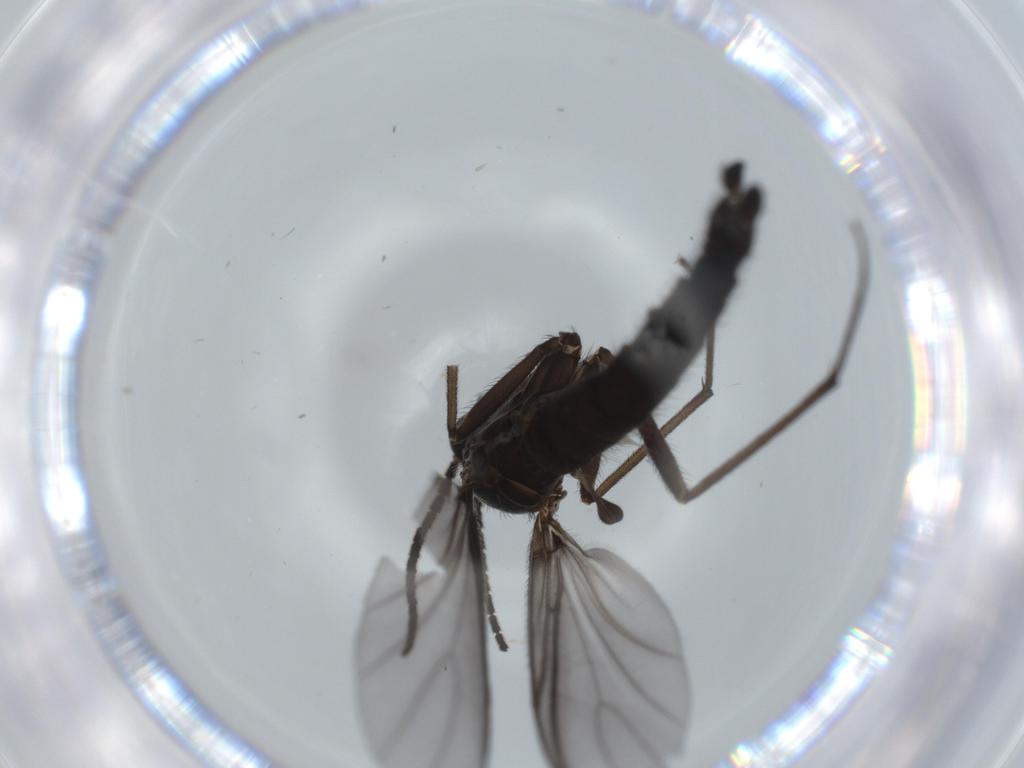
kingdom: Animalia
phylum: Arthropoda
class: Insecta
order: Diptera
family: Ceratopogonidae
